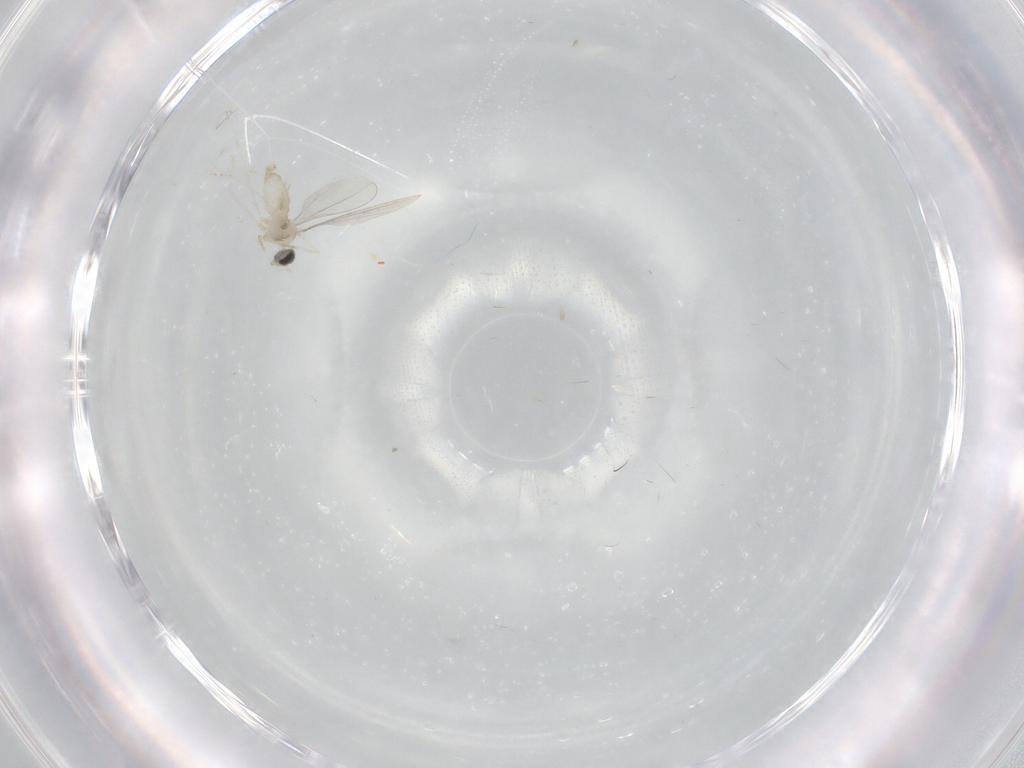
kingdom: Animalia
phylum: Arthropoda
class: Insecta
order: Diptera
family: Cecidomyiidae
